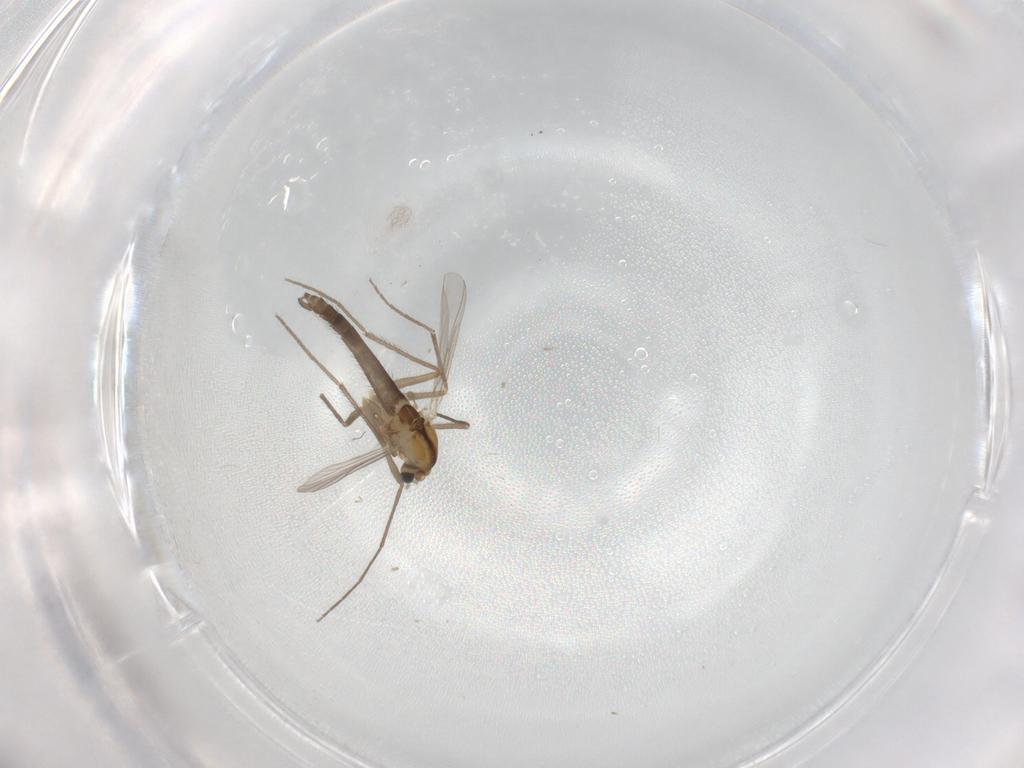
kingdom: Animalia
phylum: Arthropoda
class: Insecta
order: Diptera
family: Chironomidae
